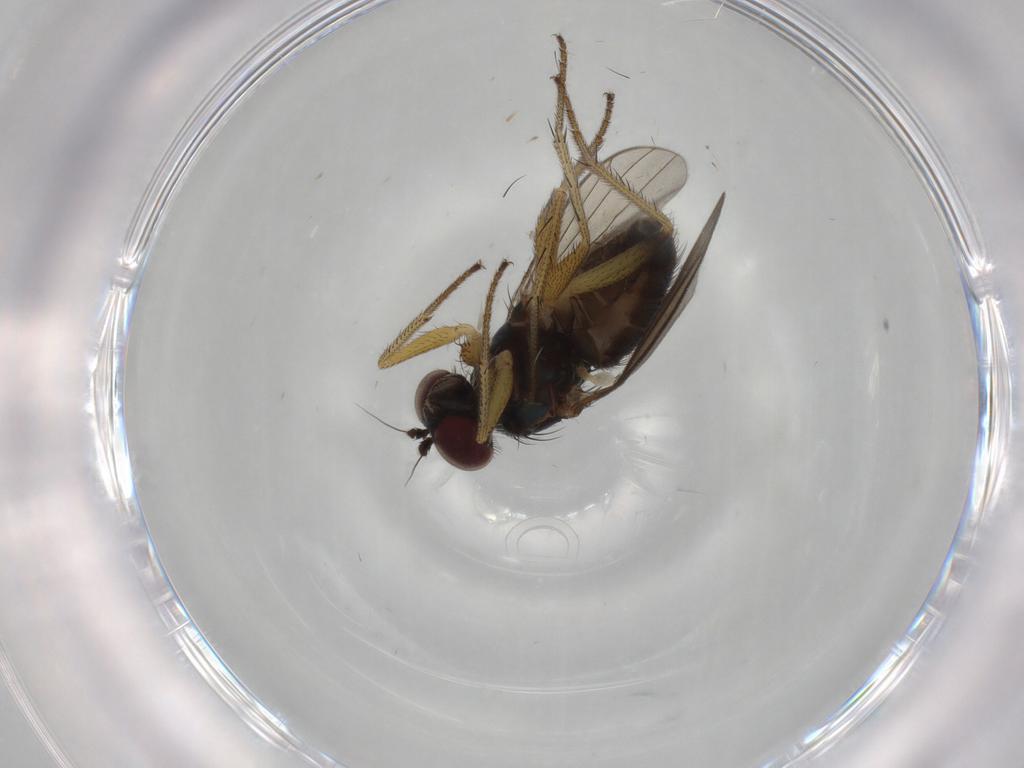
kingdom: Animalia
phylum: Arthropoda
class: Insecta
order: Diptera
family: Dolichopodidae
